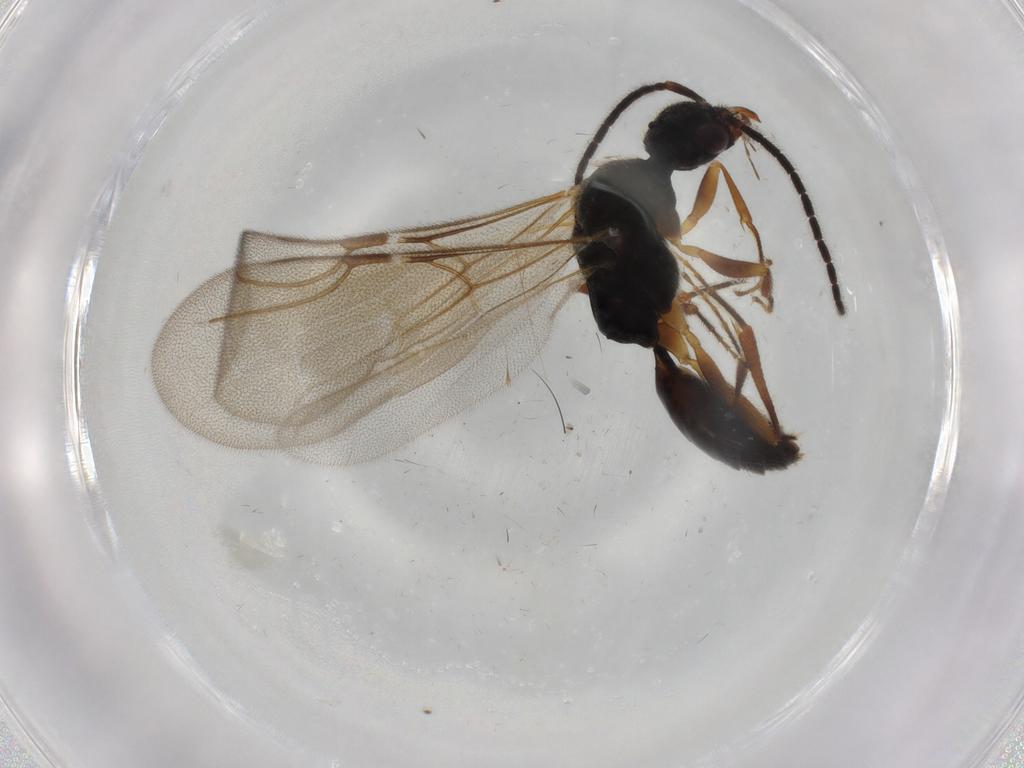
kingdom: Animalia
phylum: Arthropoda
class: Insecta
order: Hymenoptera
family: Bethylidae
